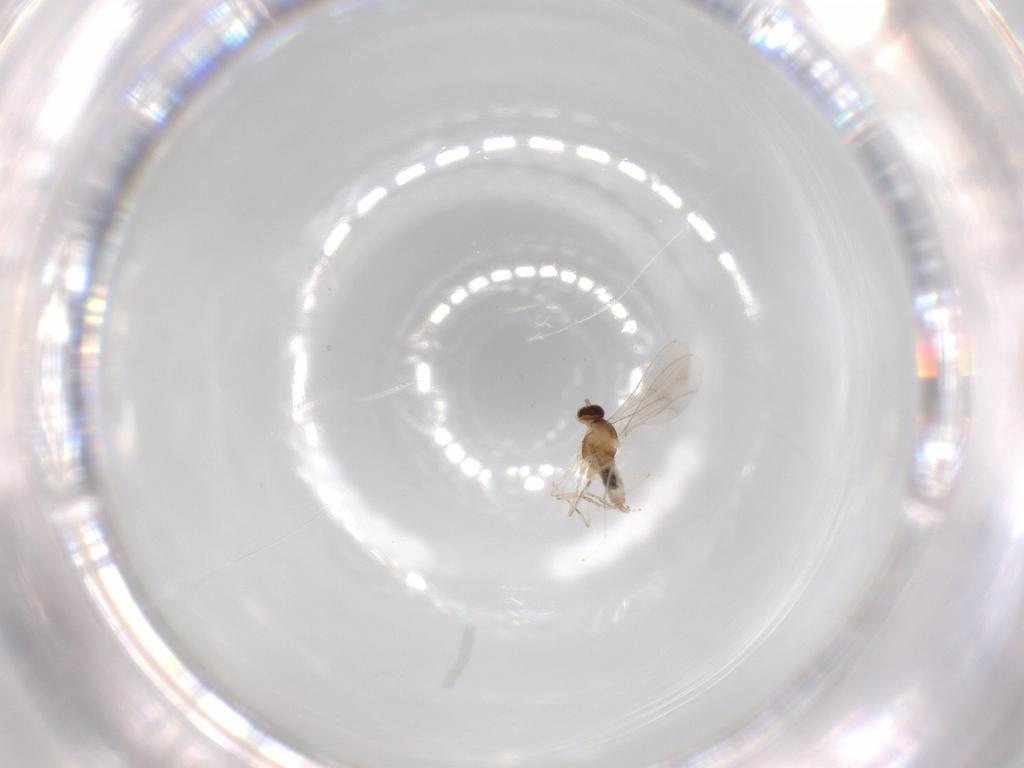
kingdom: Animalia
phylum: Arthropoda
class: Insecta
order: Diptera
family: Cecidomyiidae
